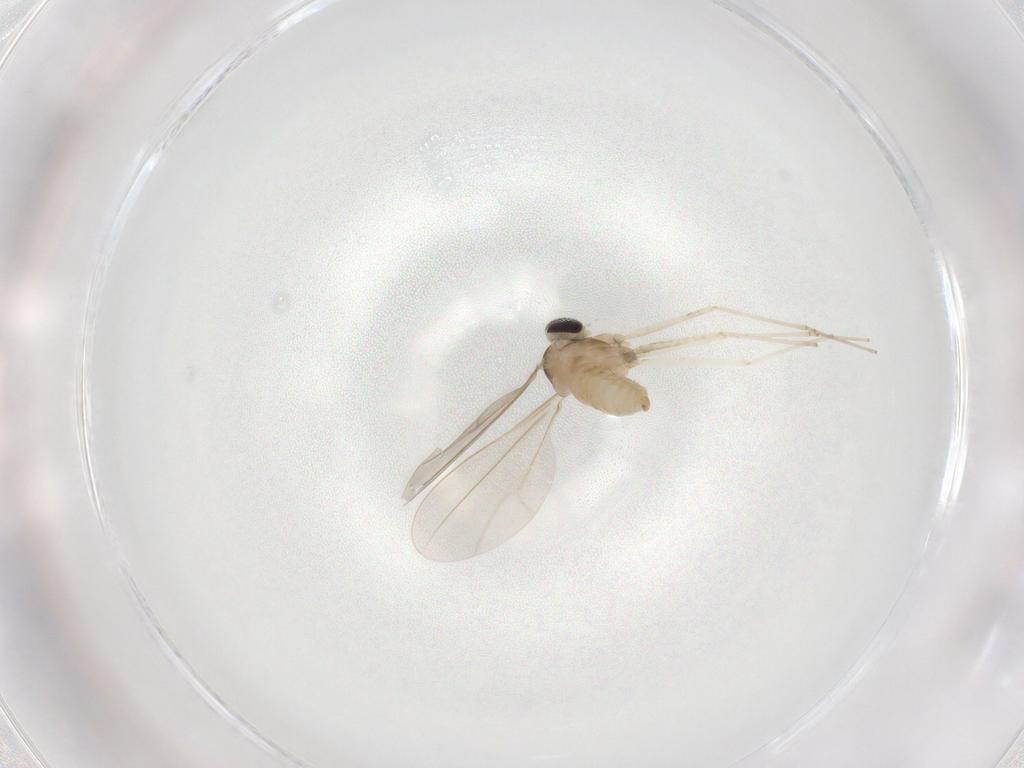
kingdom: Animalia
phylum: Arthropoda
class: Insecta
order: Diptera
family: Cecidomyiidae
